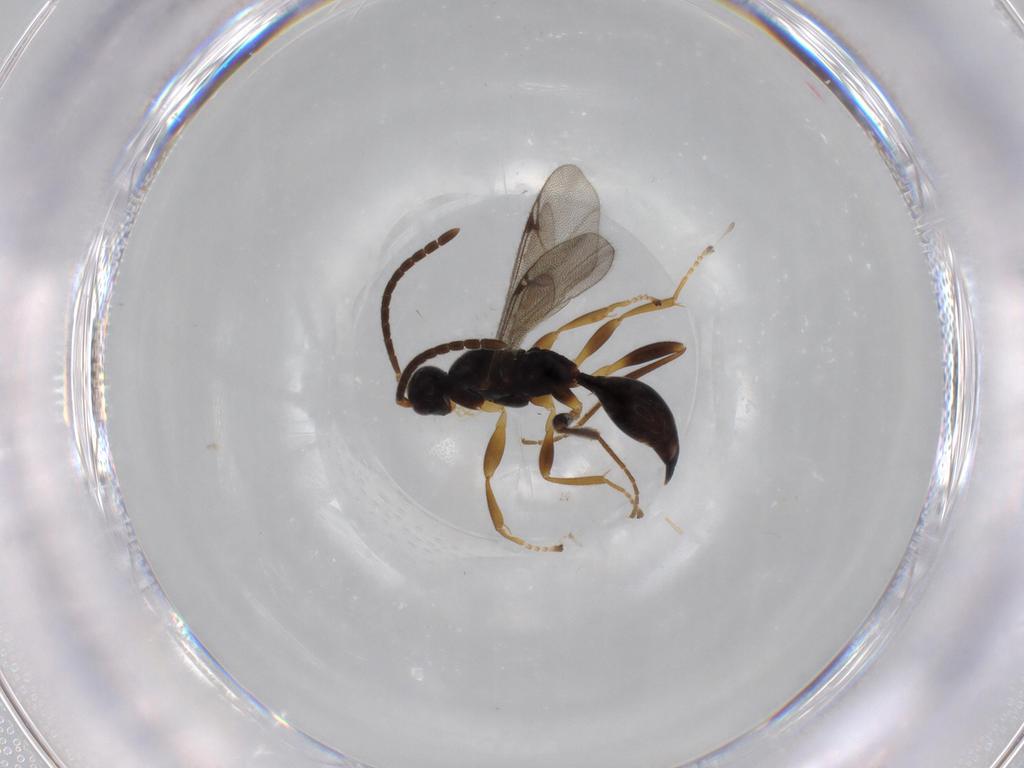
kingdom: Animalia
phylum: Arthropoda
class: Insecta
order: Hymenoptera
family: Proctotrupidae
